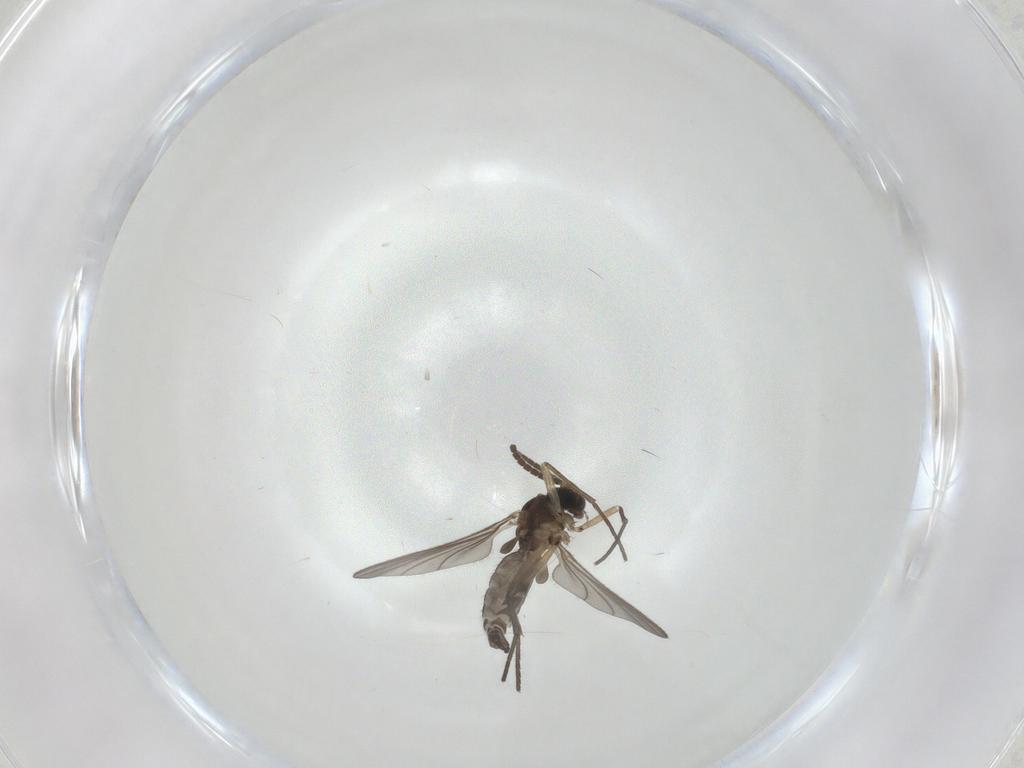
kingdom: Animalia
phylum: Arthropoda
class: Insecta
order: Diptera
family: Sciaridae
